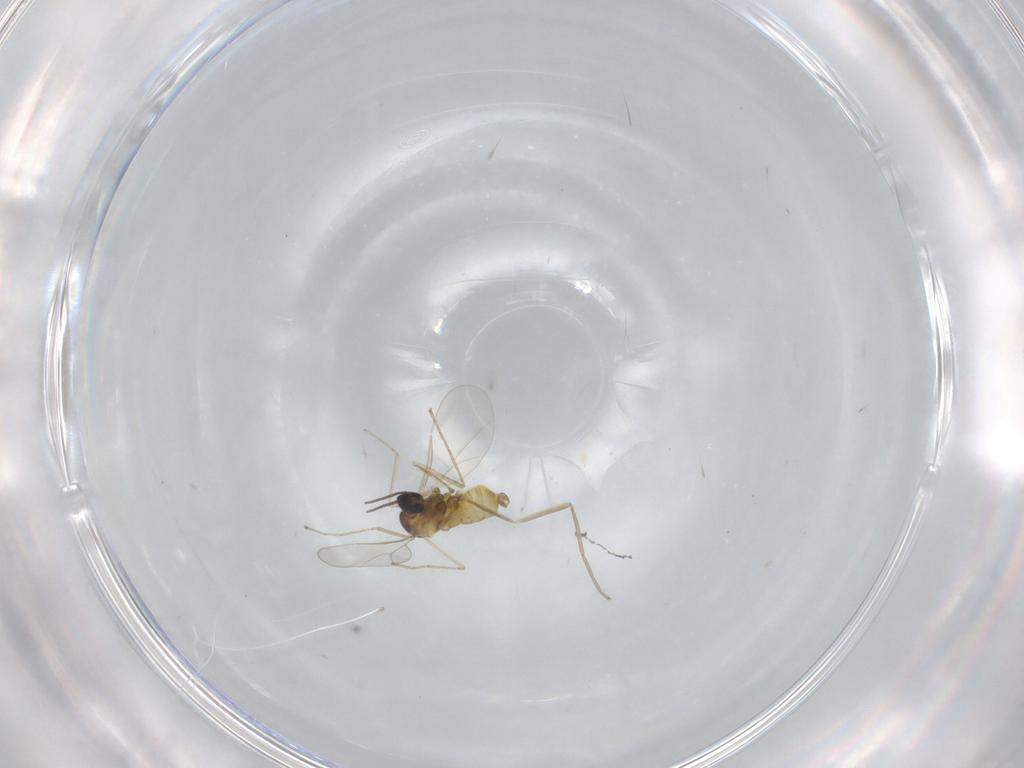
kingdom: Animalia
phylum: Arthropoda
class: Insecta
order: Diptera
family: Cecidomyiidae
